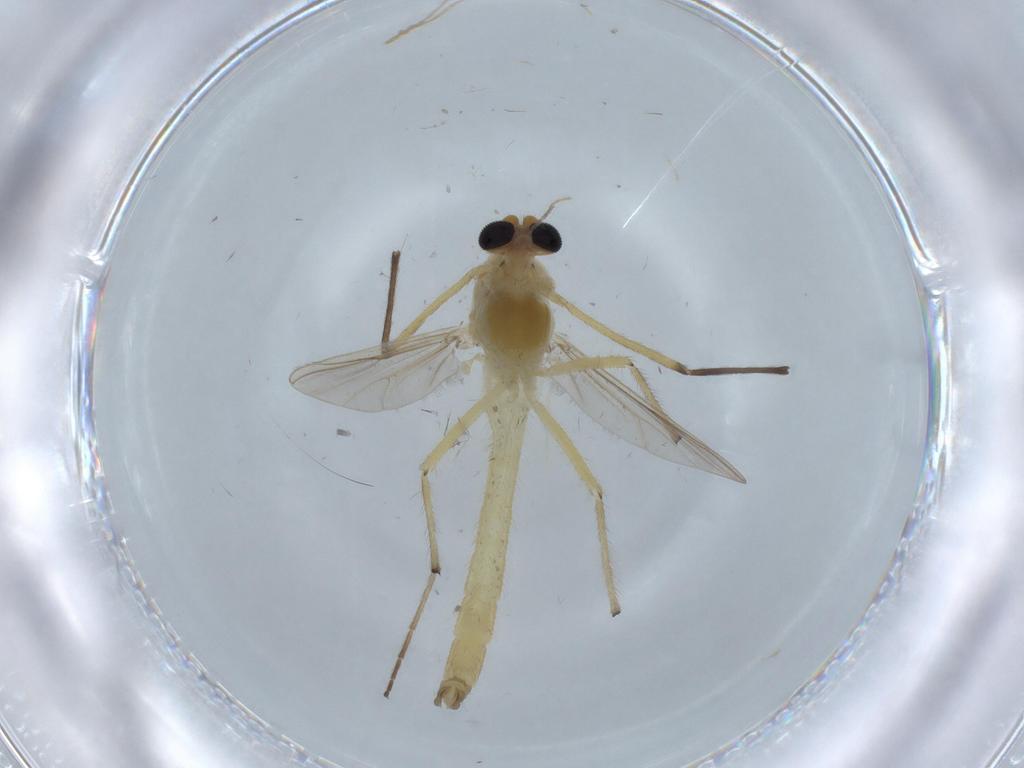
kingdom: Animalia
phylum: Arthropoda
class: Insecta
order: Diptera
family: Chironomidae
